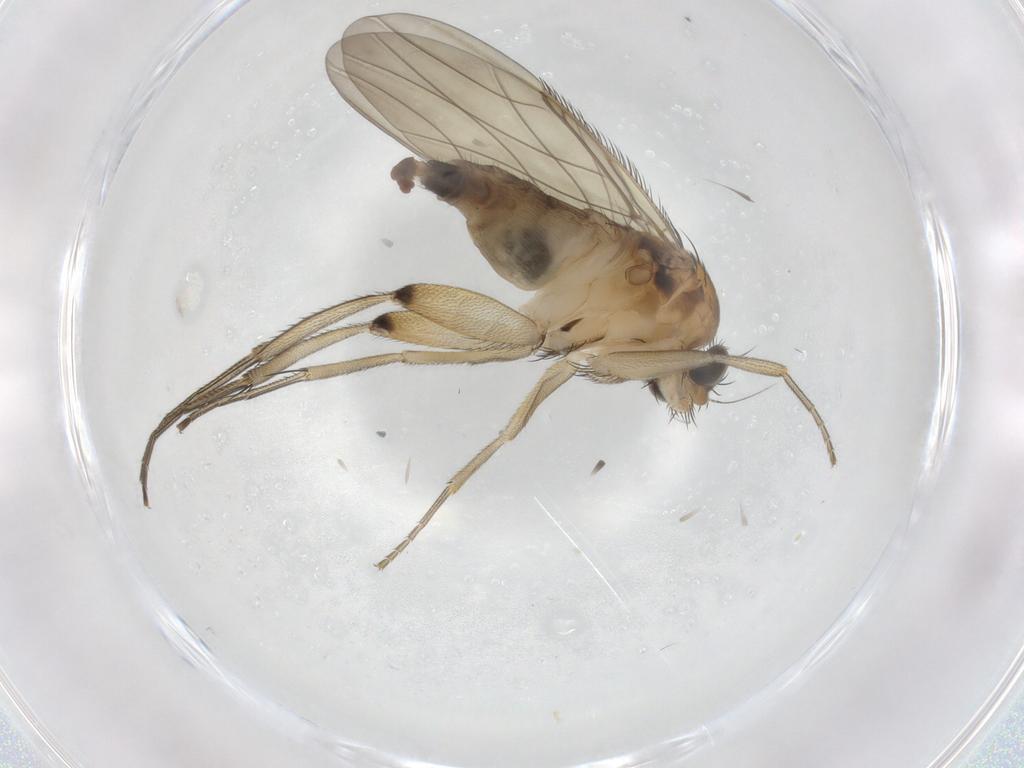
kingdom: Animalia
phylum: Arthropoda
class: Insecta
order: Diptera
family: Phoridae
